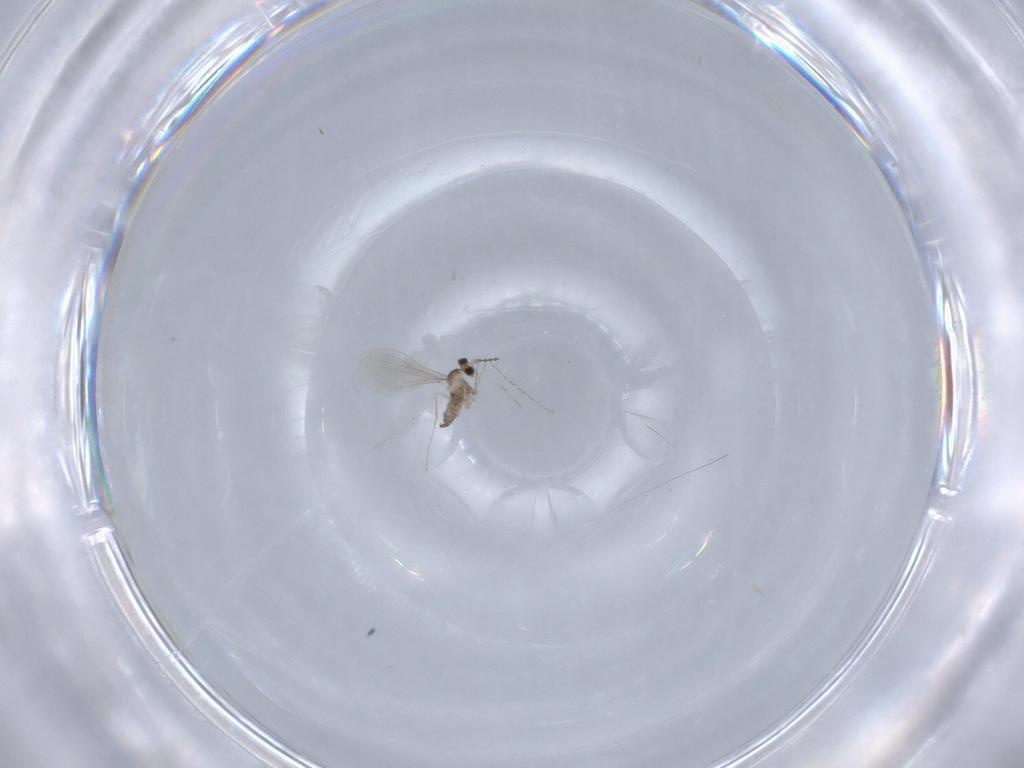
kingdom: Animalia
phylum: Arthropoda
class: Insecta
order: Diptera
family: Cecidomyiidae
